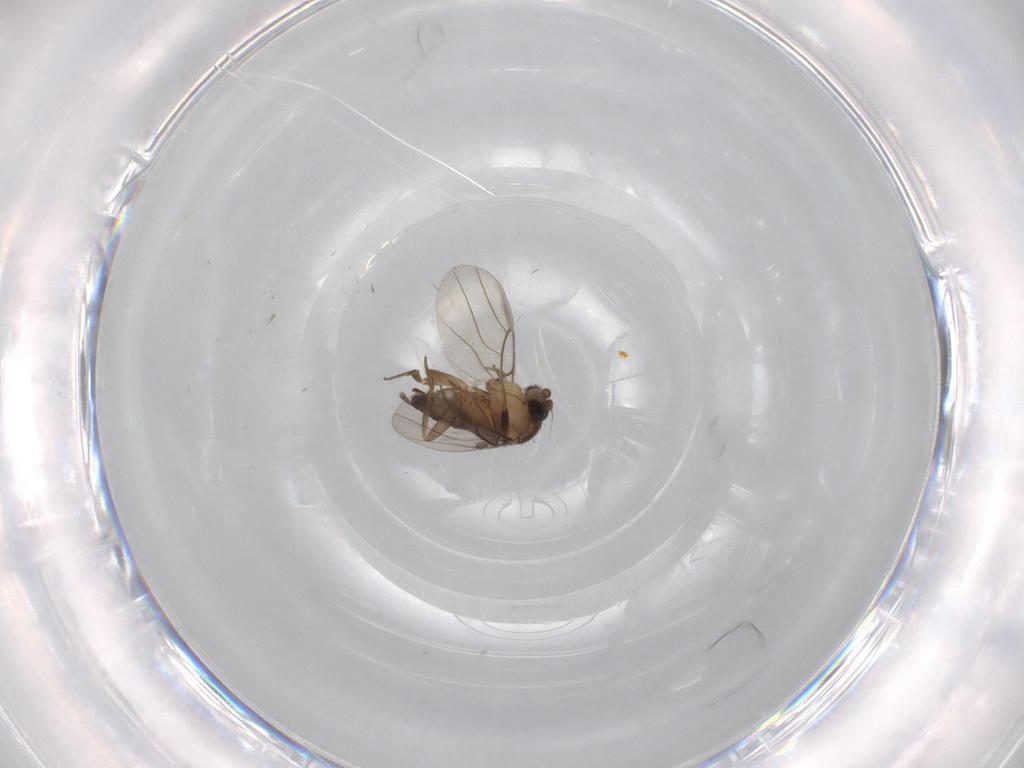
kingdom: Animalia
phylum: Arthropoda
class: Insecta
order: Diptera
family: Phoridae
